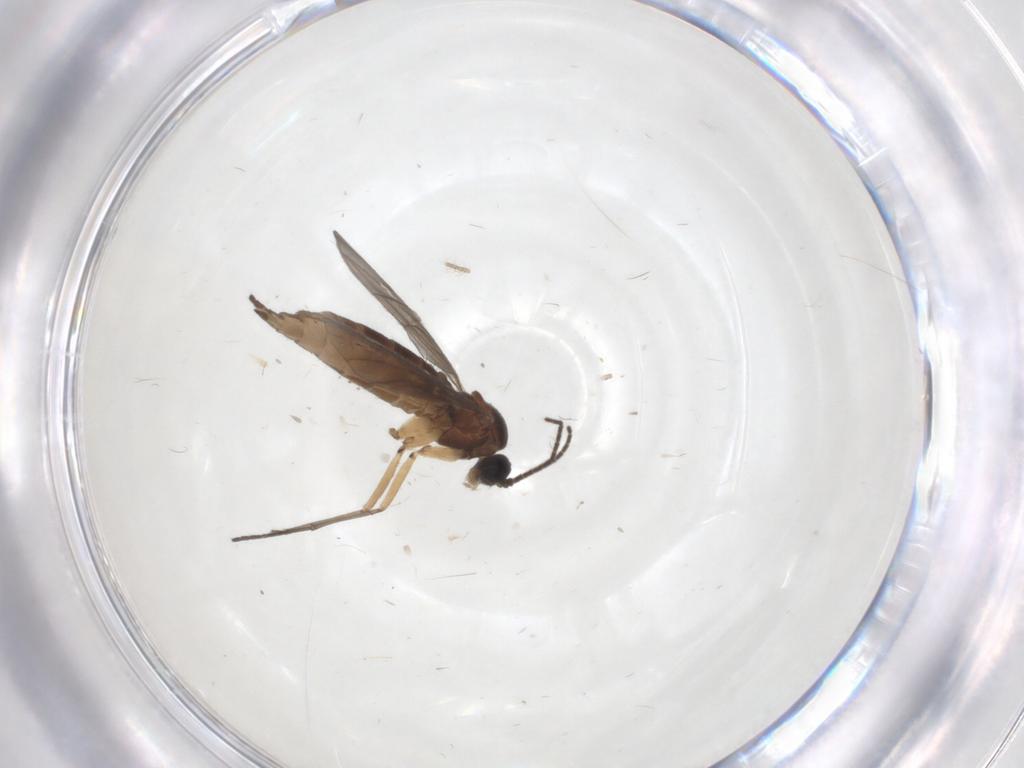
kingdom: Animalia
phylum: Arthropoda
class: Insecta
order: Diptera
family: Sciaridae
